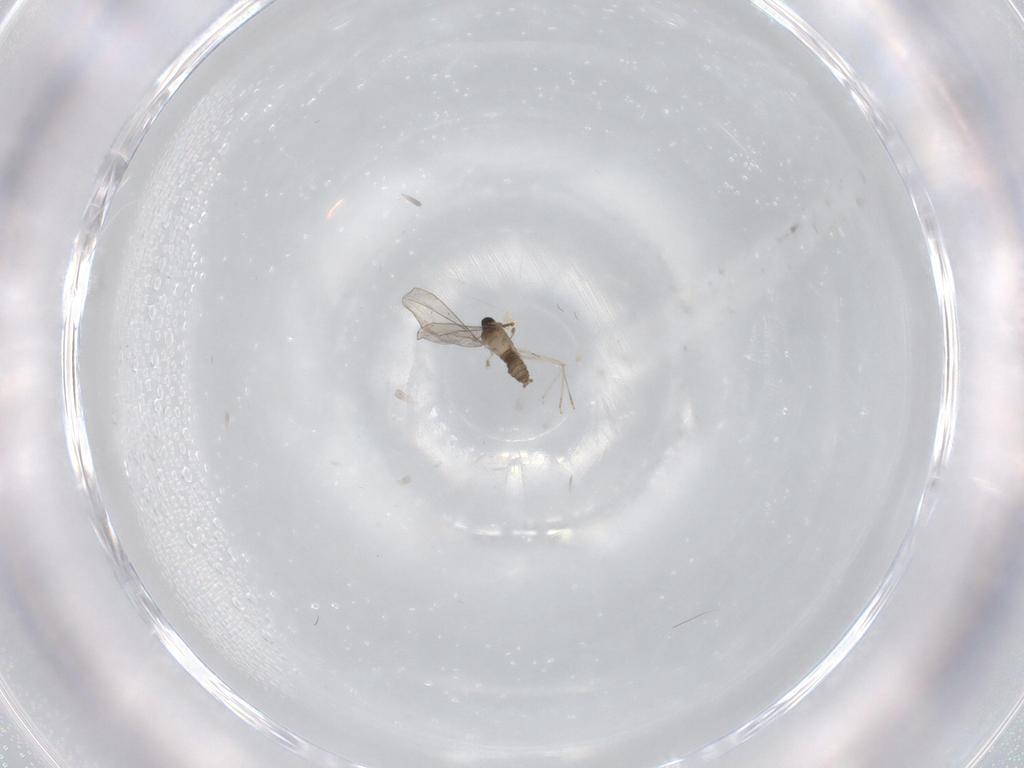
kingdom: Animalia
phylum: Arthropoda
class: Insecta
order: Diptera
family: Cecidomyiidae
